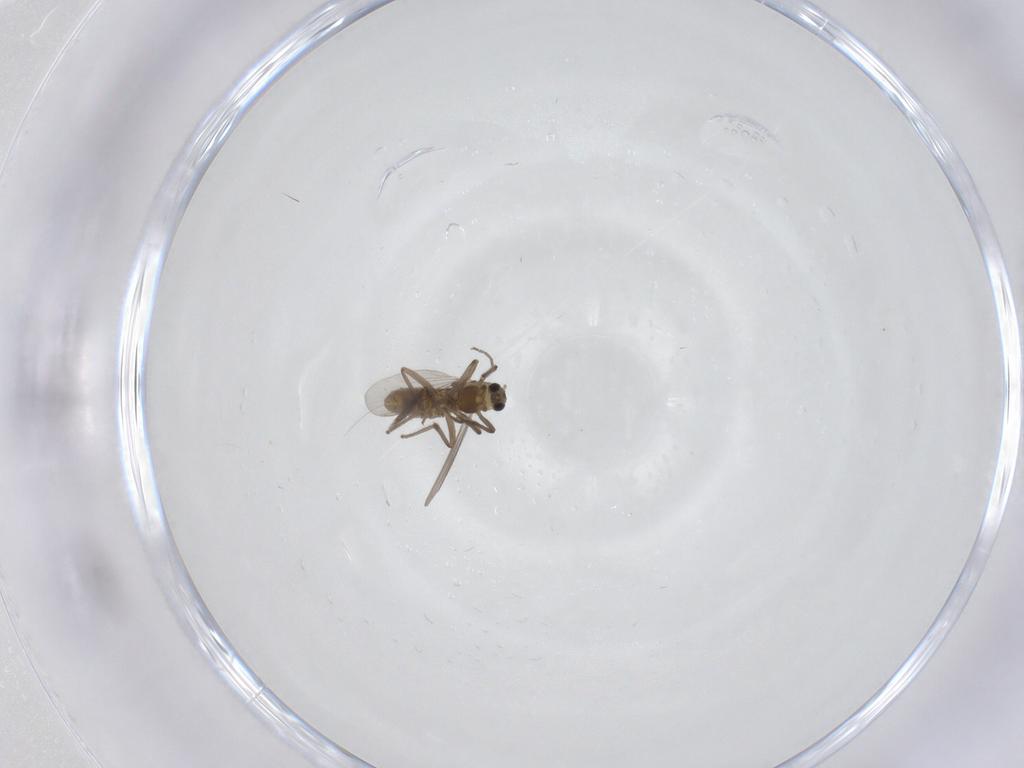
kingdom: Animalia
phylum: Arthropoda
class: Insecta
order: Diptera
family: Chironomidae
